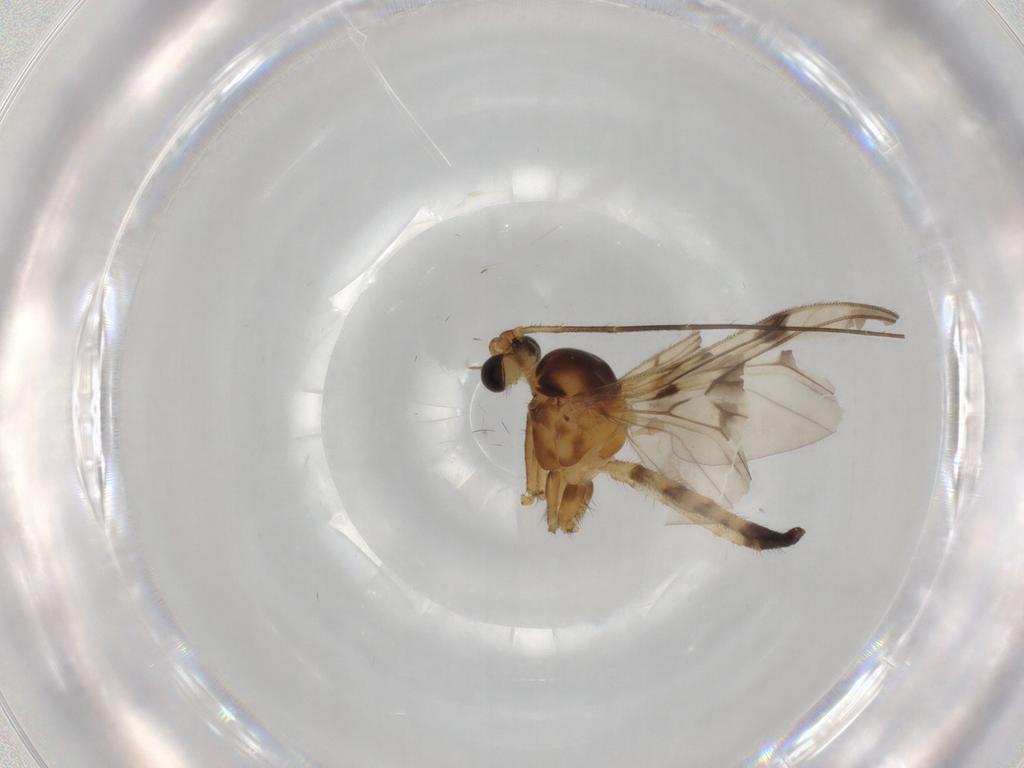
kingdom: Animalia
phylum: Arthropoda
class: Insecta
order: Diptera
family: Keroplatidae
